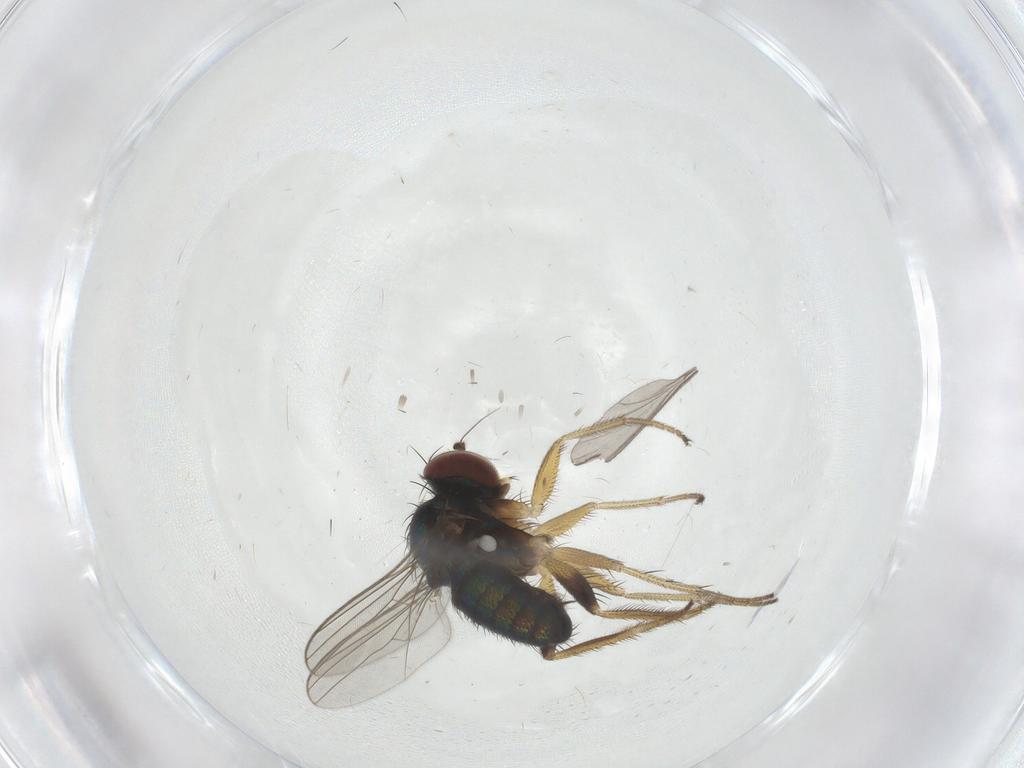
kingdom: Animalia
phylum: Arthropoda
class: Insecta
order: Diptera
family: Dolichopodidae
